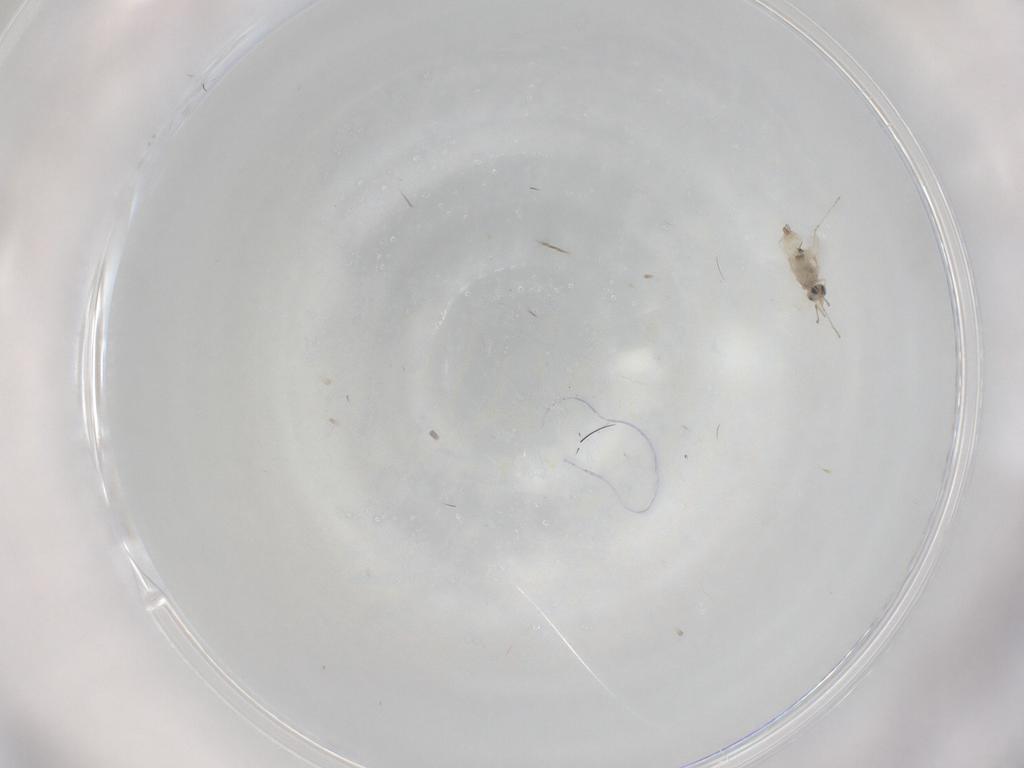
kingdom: Animalia
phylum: Arthropoda
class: Insecta
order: Diptera
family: Cecidomyiidae
